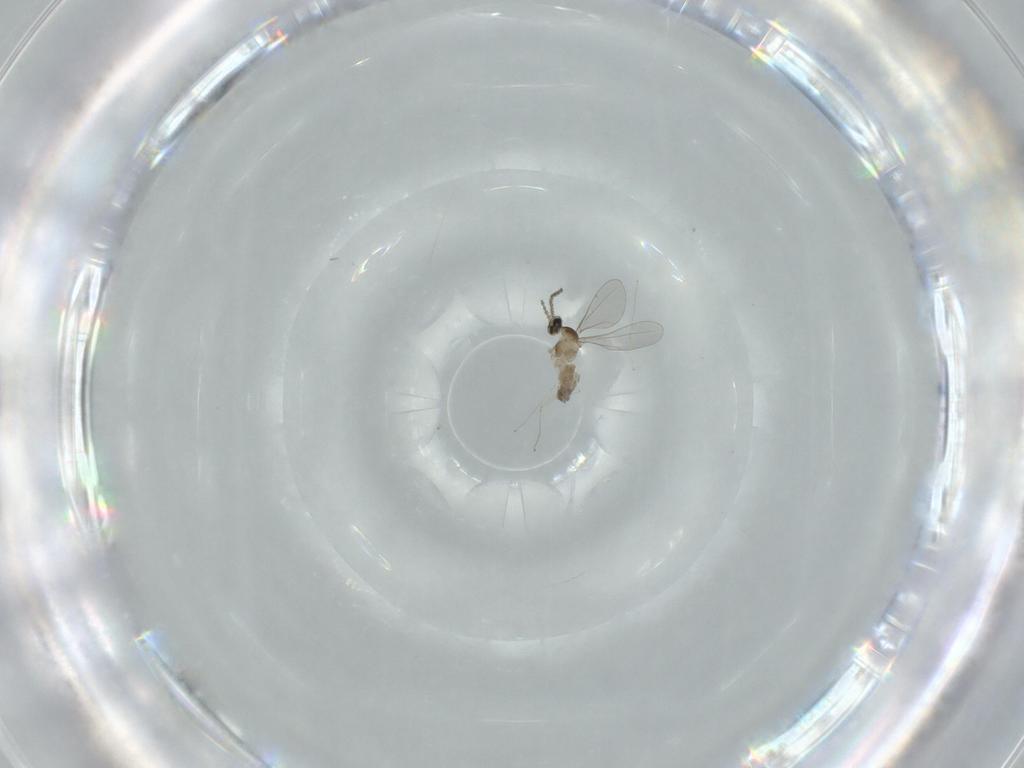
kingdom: Animalia
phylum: Arthropoda
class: Insecta
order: Diptera
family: Cecidomyiidae
